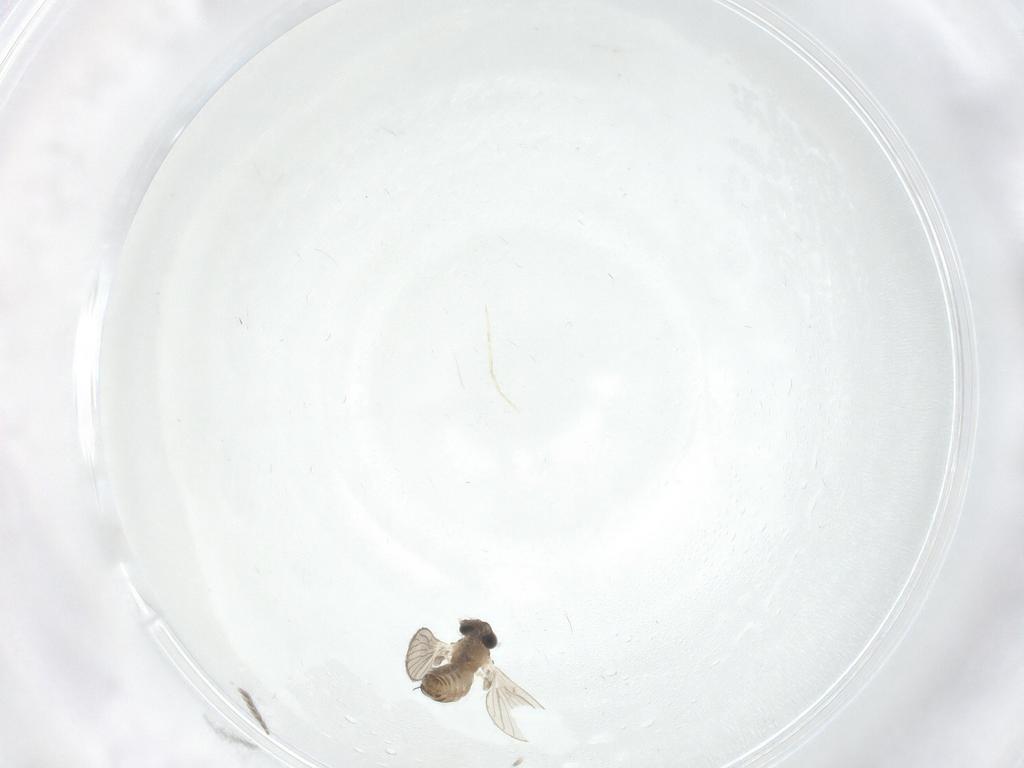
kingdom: Animalia
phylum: Arthropoda
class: Insecta
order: Diptera
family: Psychodidae
